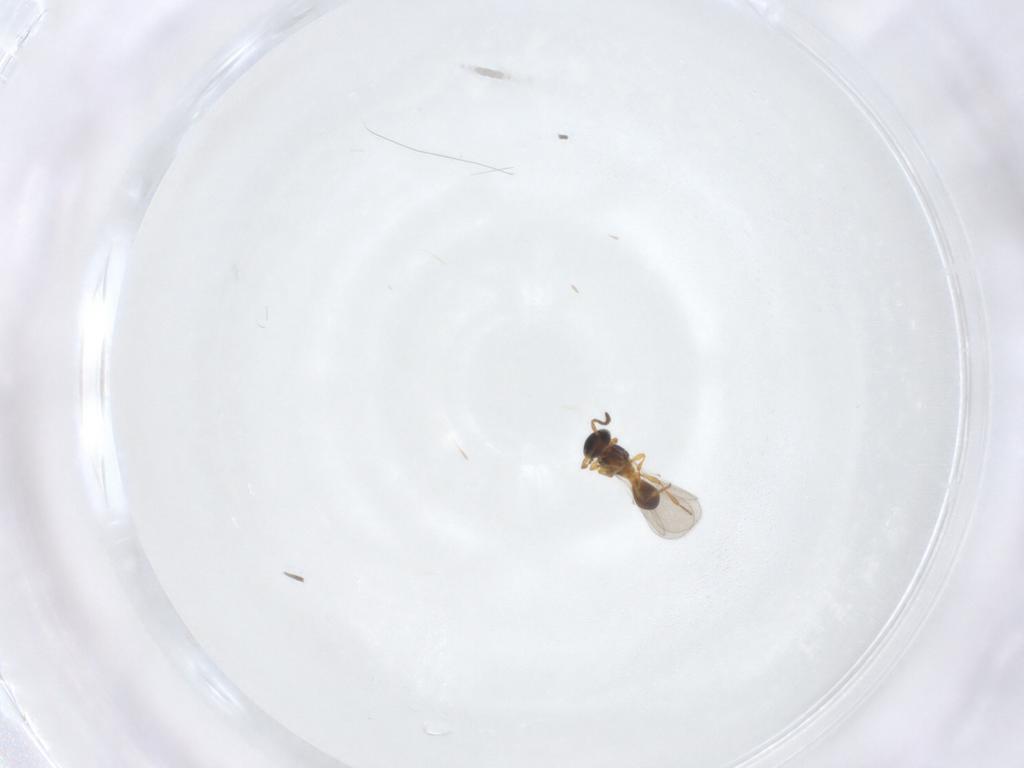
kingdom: Animalia
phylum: Arthropoda
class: Insecta
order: Hymenoptera
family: Platygastridae
